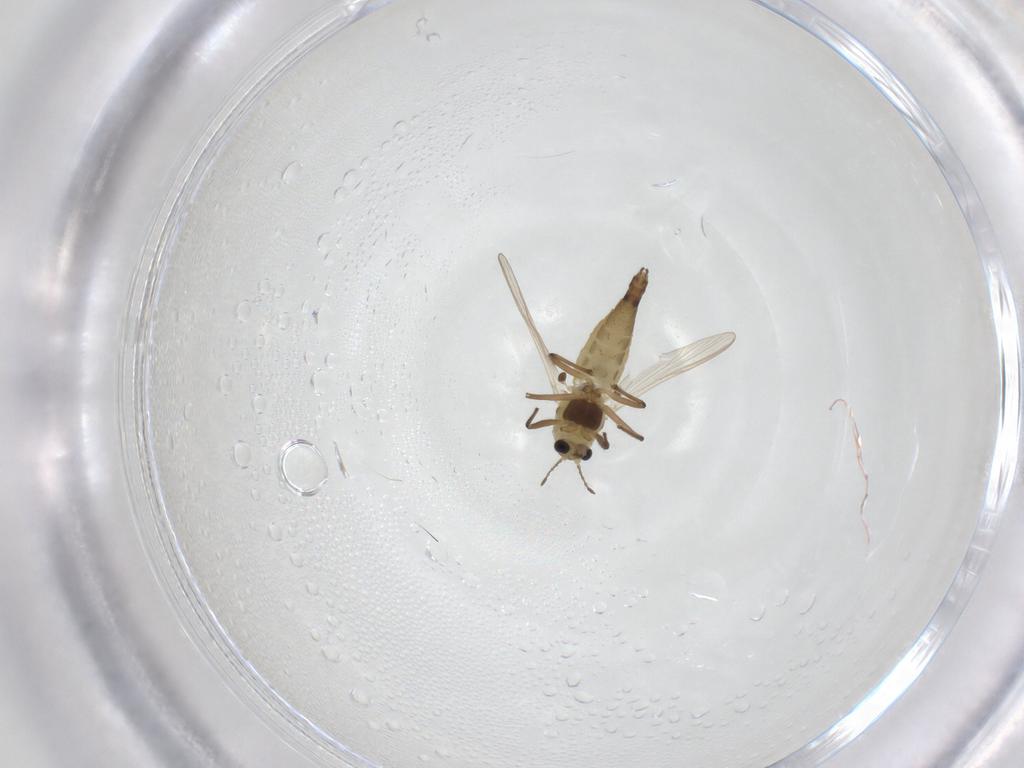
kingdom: Animalia
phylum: Arthropoda
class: Insecta
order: Diptera
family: Chironomidae
